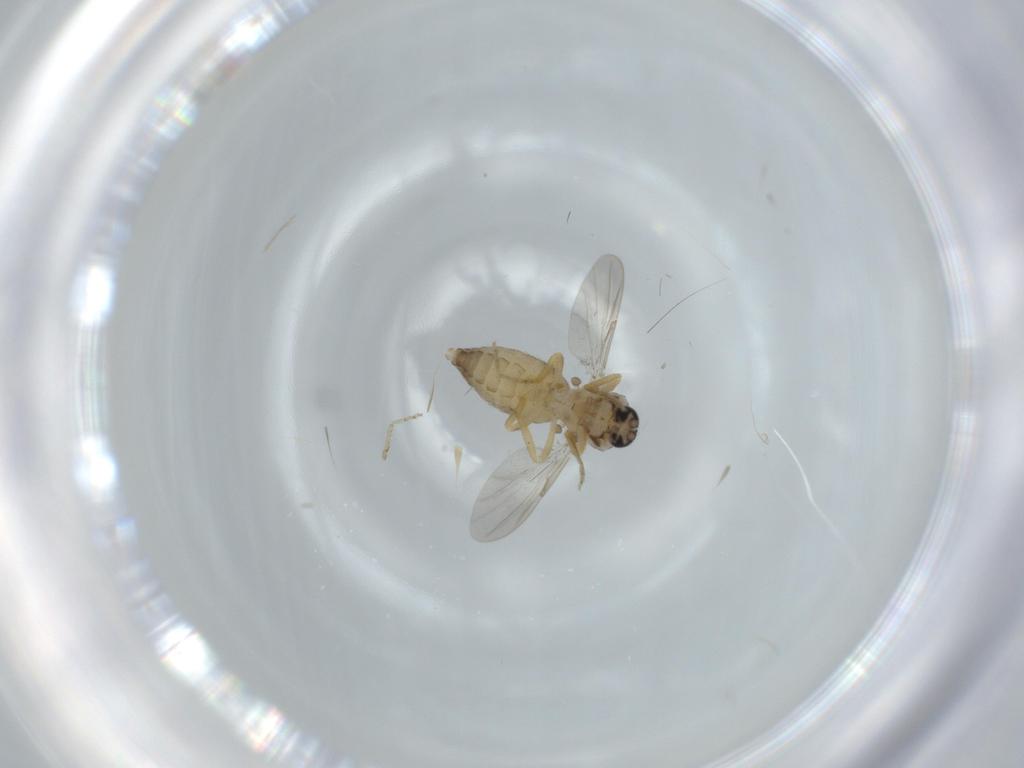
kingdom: Animalia
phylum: Arthropoda
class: Insecta
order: Diptera
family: Ceratopogonidae
